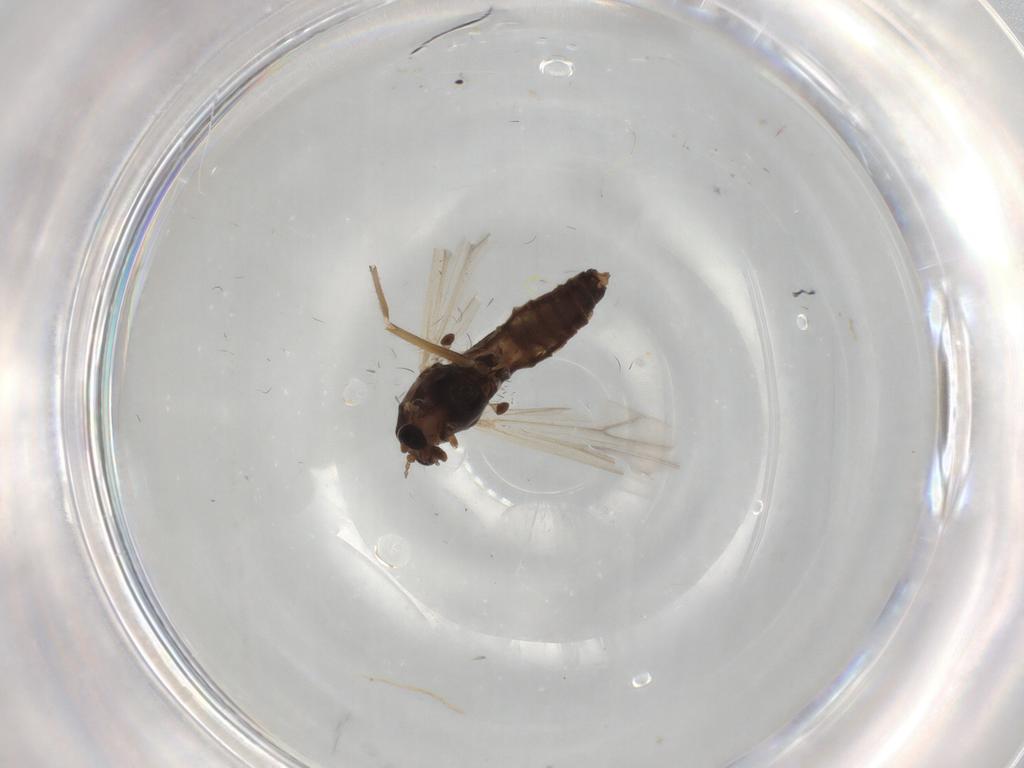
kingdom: Animalia
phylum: Arthropoda
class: Insecta
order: Diptera
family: Chironomidae
